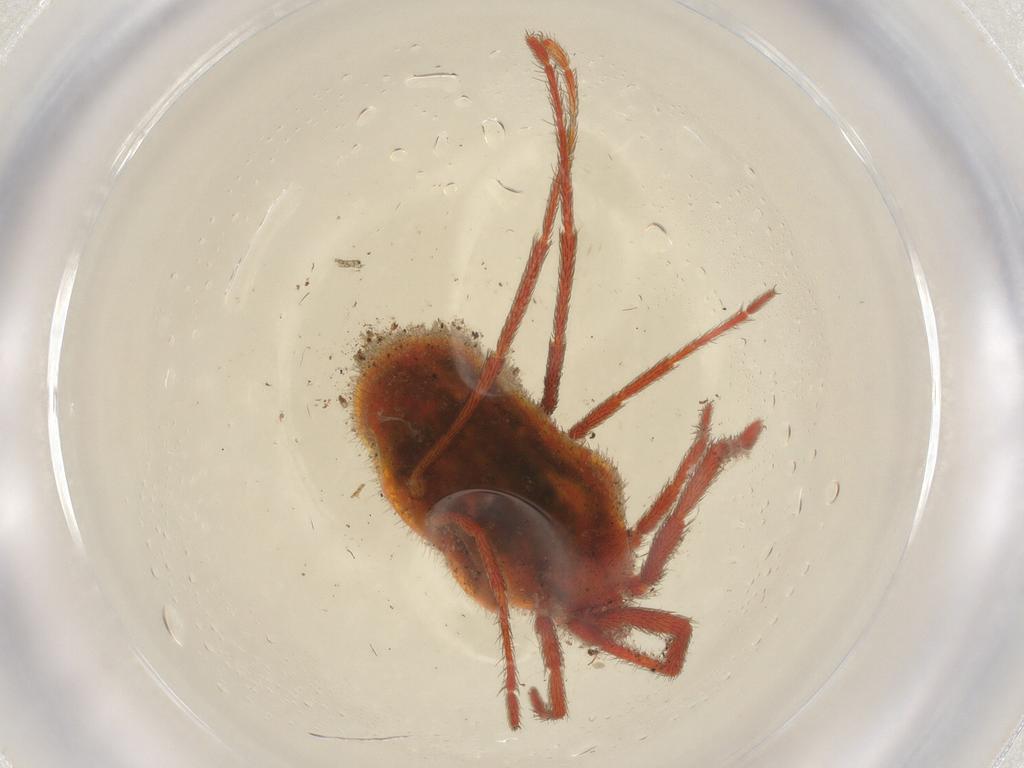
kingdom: Animalia
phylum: Arthropoda
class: Arachnida
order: Trombidiformes
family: Erythraeidae
